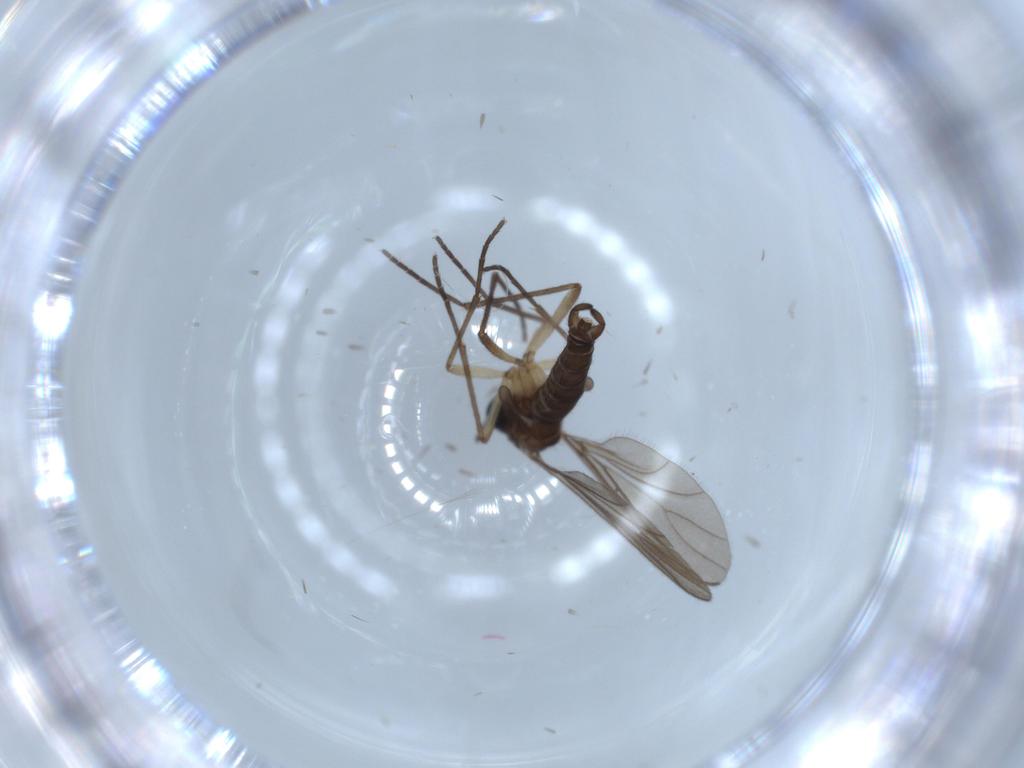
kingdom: Animalia
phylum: Arthropoda
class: Insecta
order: Diptera
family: Sciaridae
